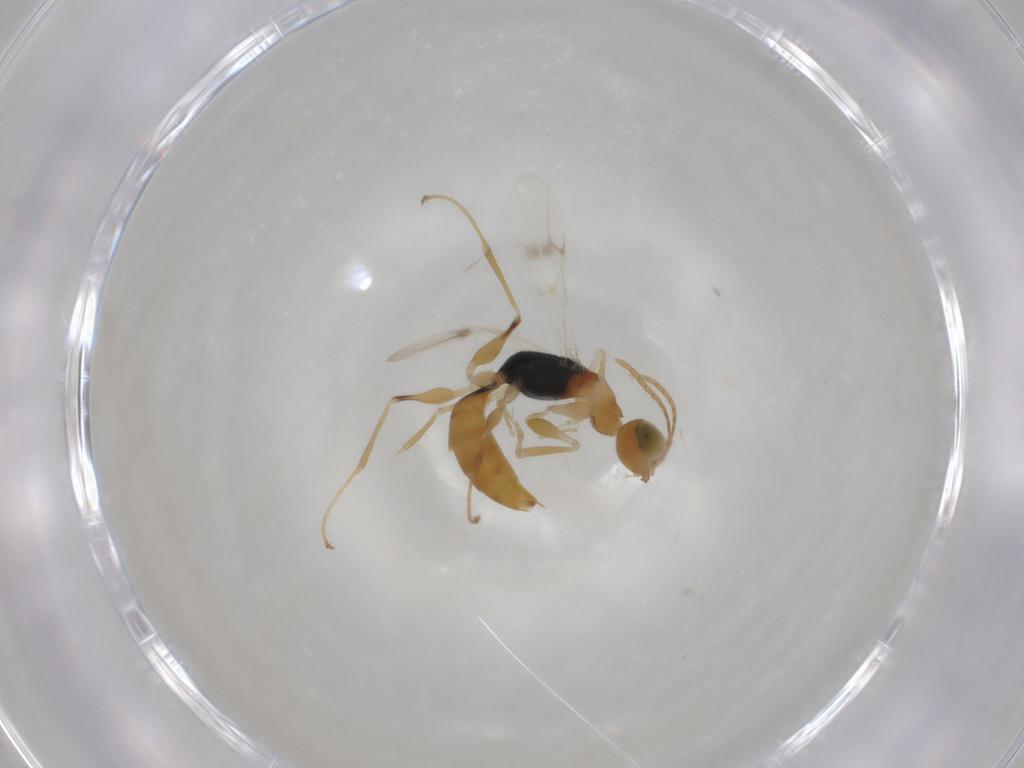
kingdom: Animalia
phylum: Arthropoda
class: Insecta
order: Hymenoptera
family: Dryinidae
